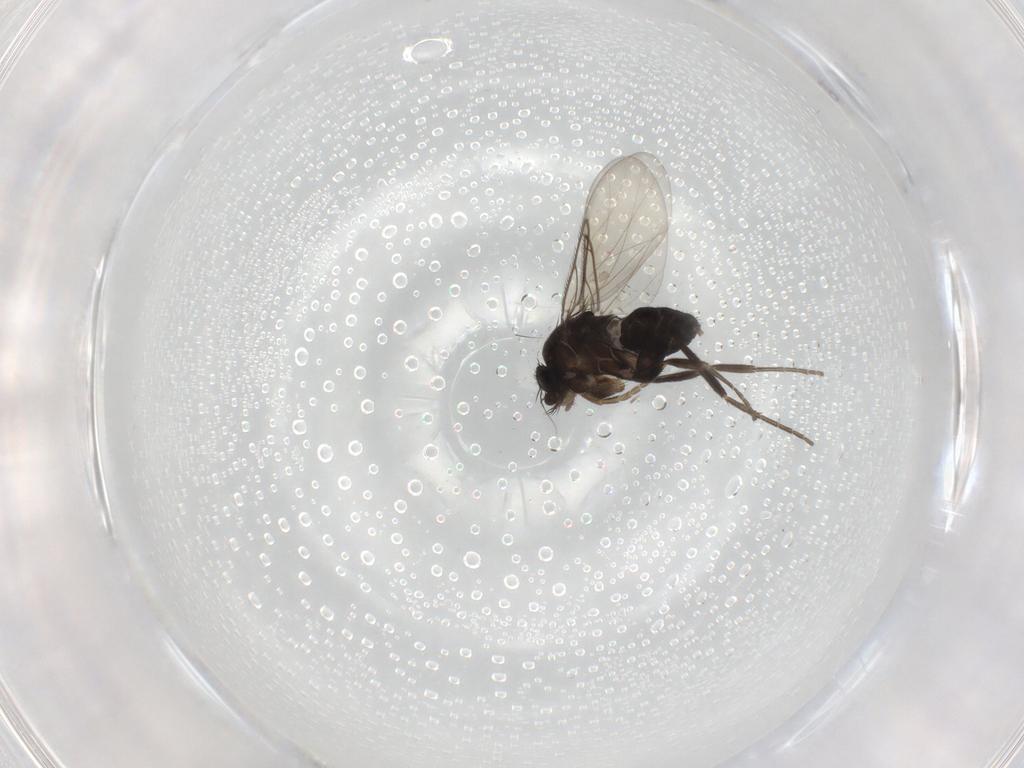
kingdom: Animalia
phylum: Arthropoda
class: Insecta
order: Diptera
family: Phoridae
